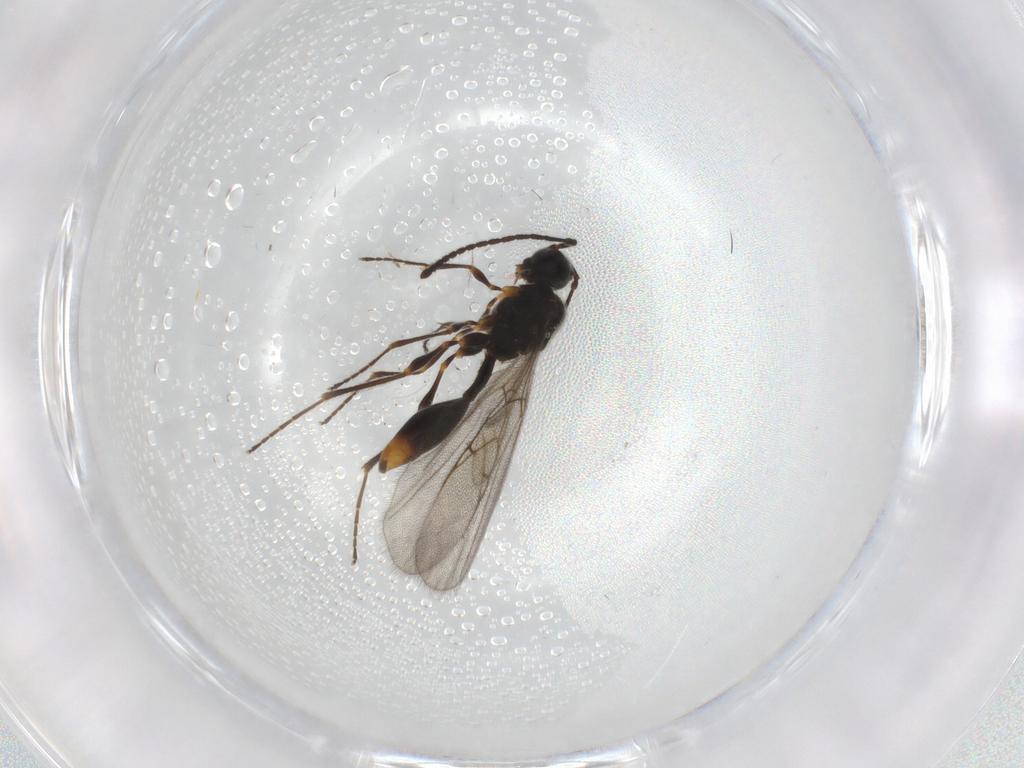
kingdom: Animalia
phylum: Arthropoda
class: Insecta
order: Hymenoptera
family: Diapriidae
